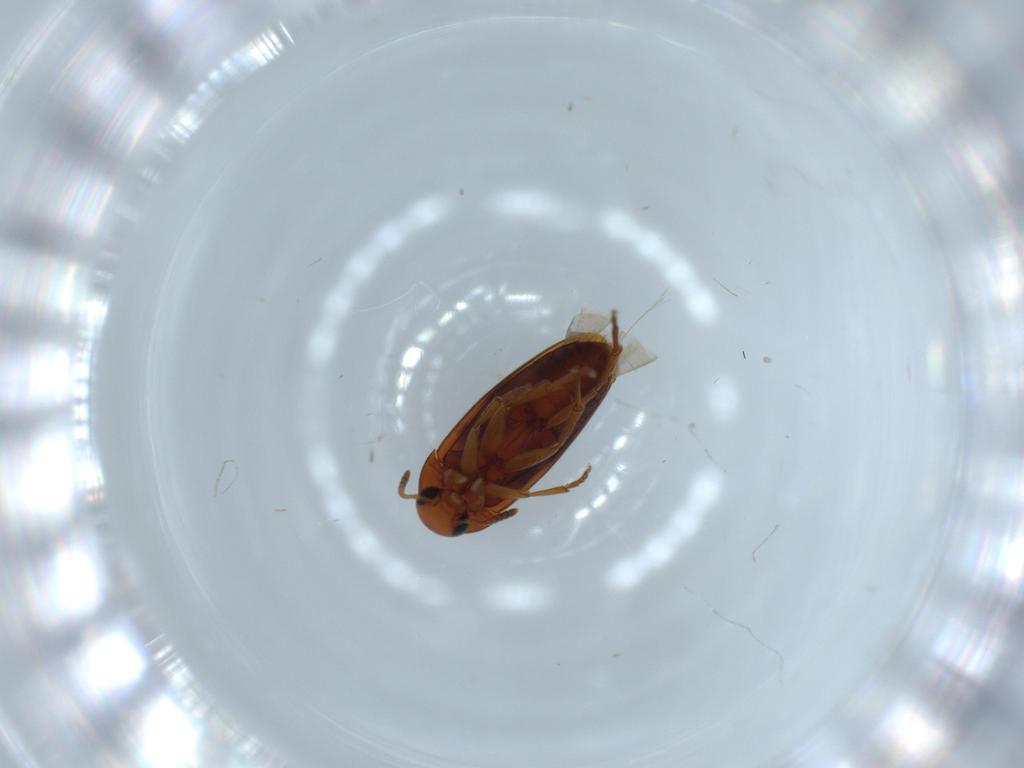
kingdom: Animalia
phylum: Arthropoda
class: Insecta
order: Coleoptera
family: Scraptiidae
